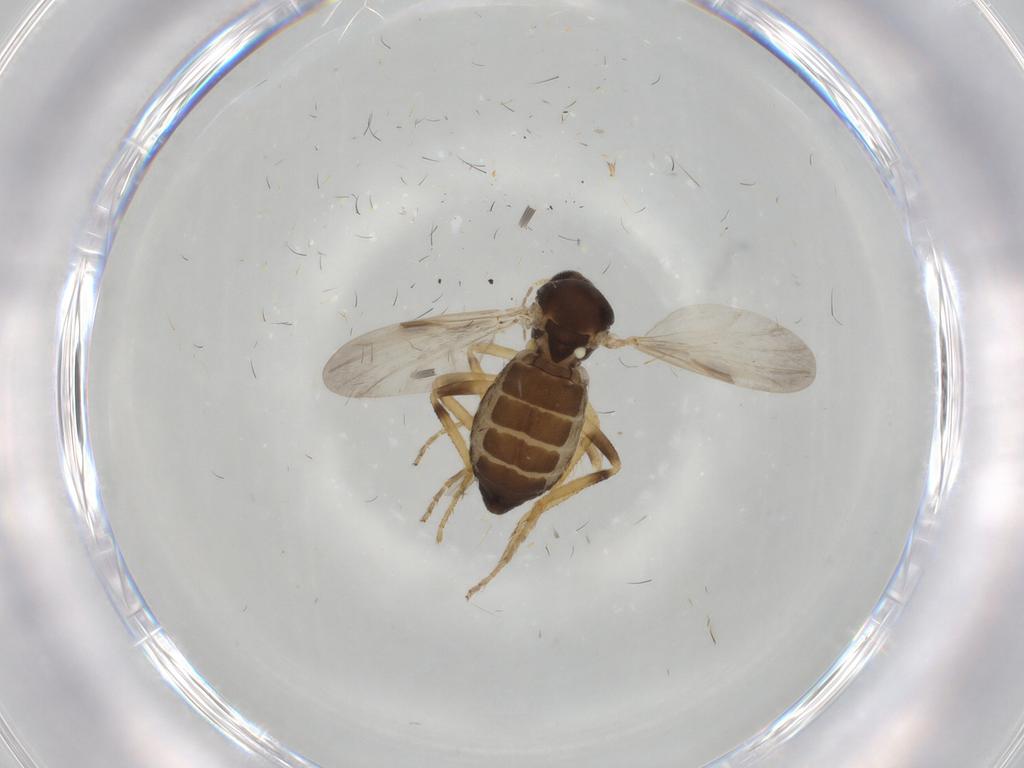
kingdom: Animalia
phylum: Arthropoda
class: Insecta
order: Diptera
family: Ceratopogonidae
